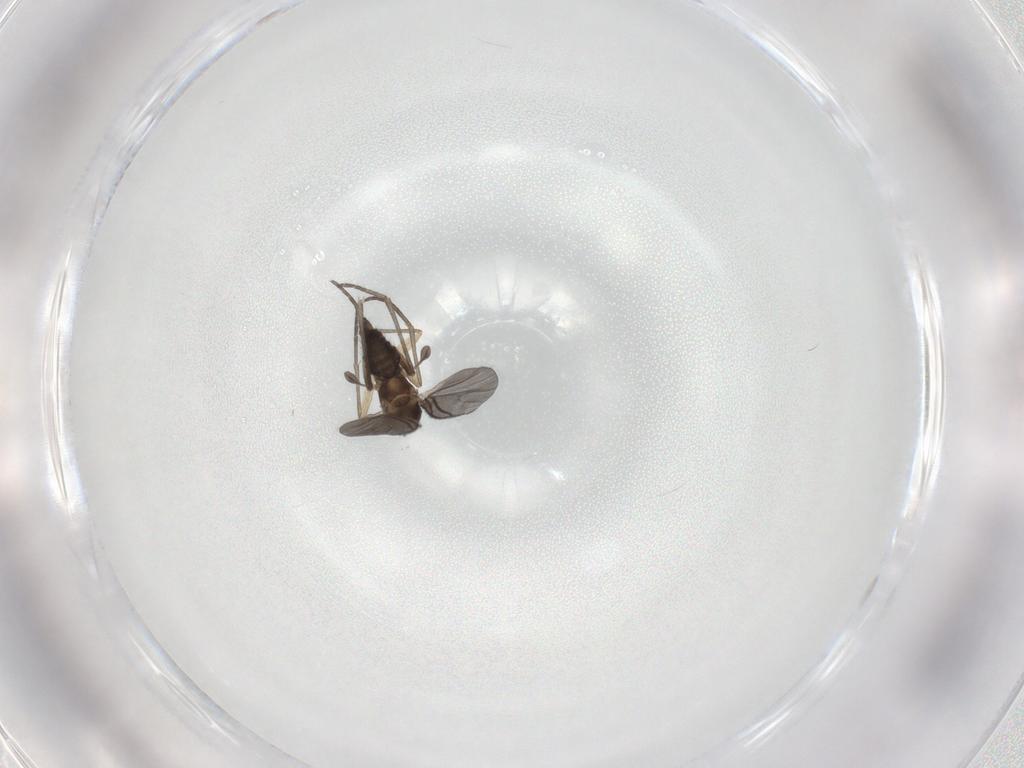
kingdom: Animalia
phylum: Arthropoda
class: Insecta
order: Diptera
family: Sciaridae
